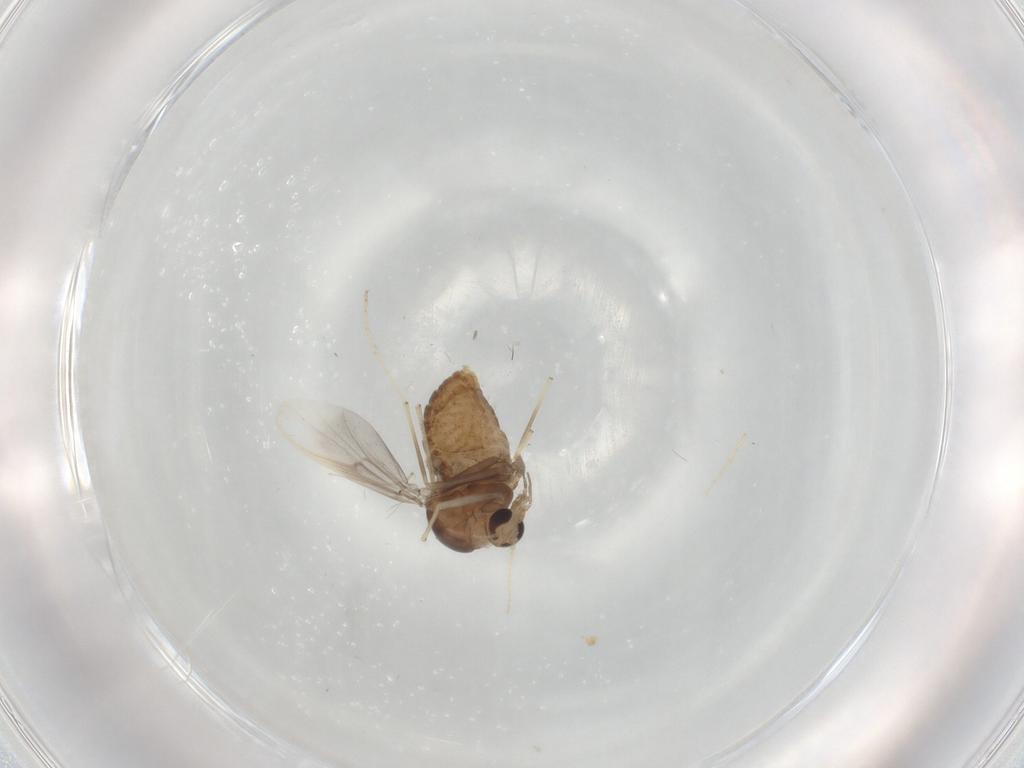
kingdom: Animalia
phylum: Arthropoda
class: Insecta
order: Diptera
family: Chironomidae
